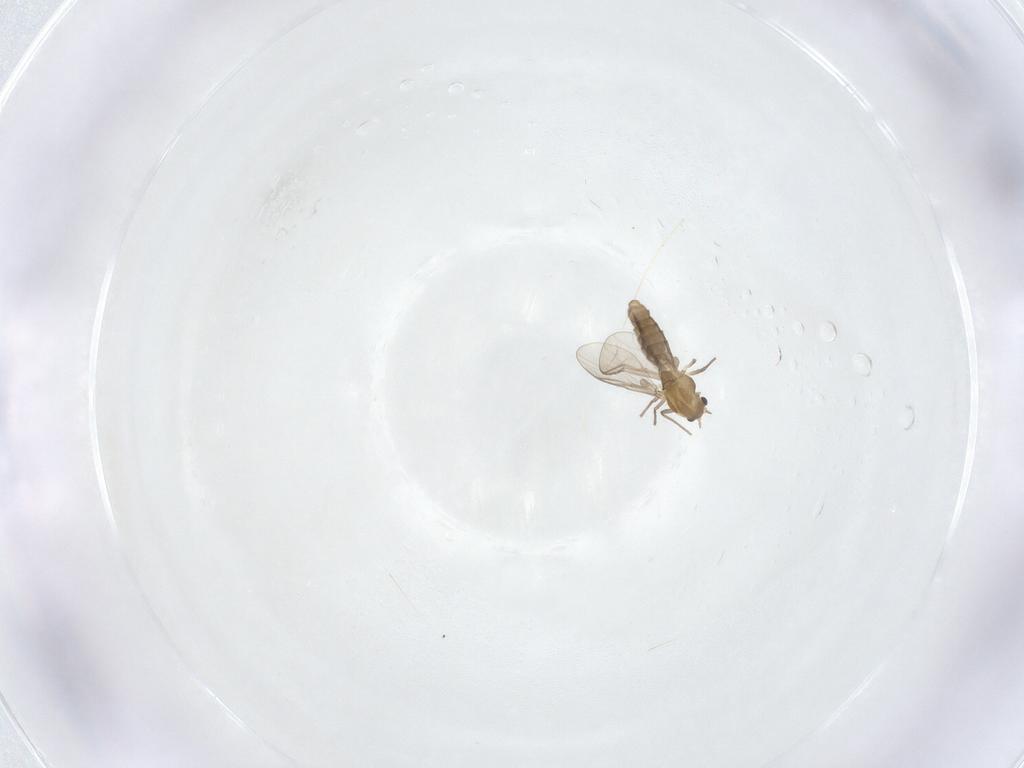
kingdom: Animalia
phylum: Arthropoda
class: Insecta
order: Diptera
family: Chironomidae
